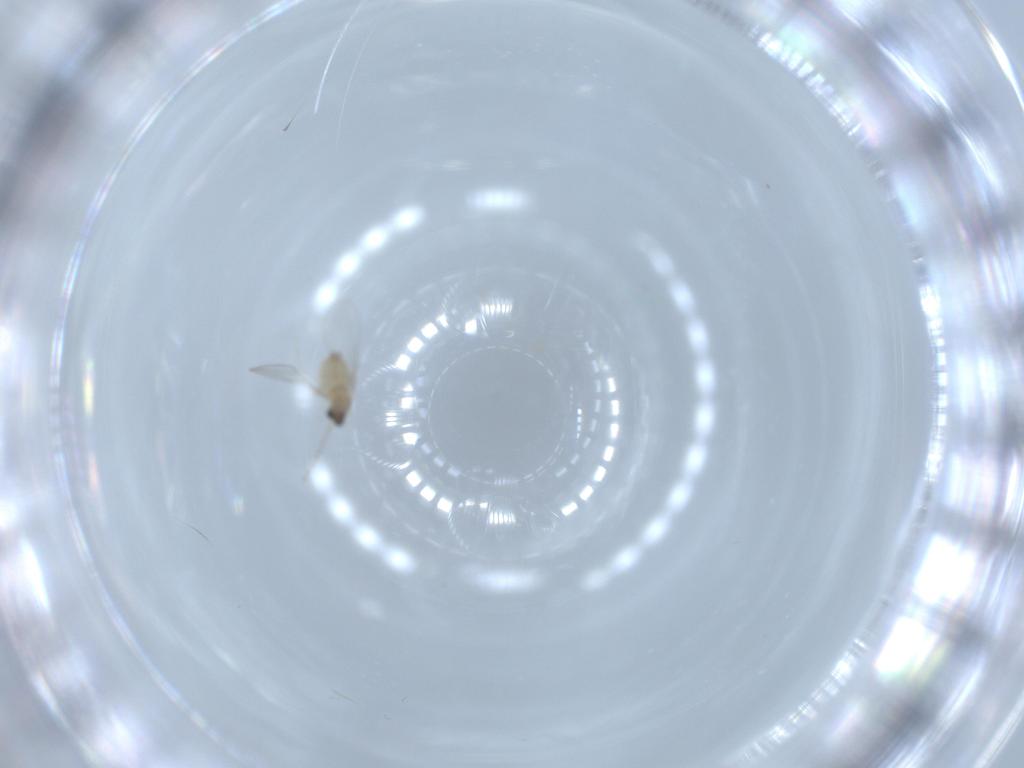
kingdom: Animalia
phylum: Arthropoda
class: Insecta
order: Diptera
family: Cecidomyiidae
